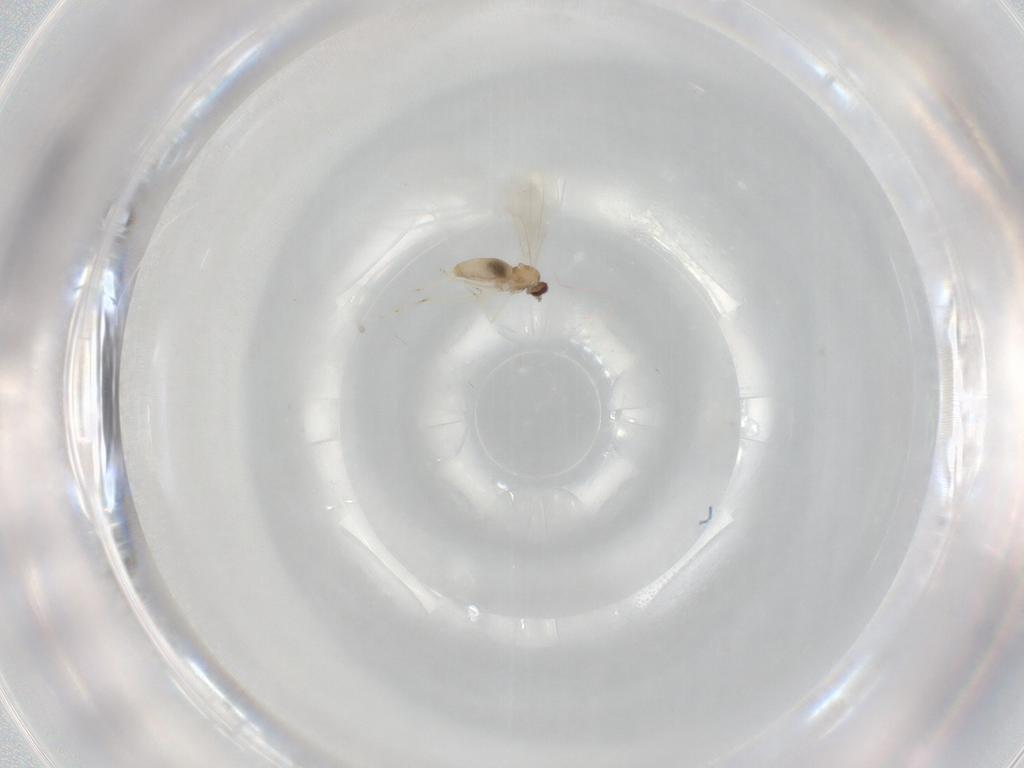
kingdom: Animalia
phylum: Arthropoda
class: Insecta
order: Diptera
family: Cecidomyiidae
